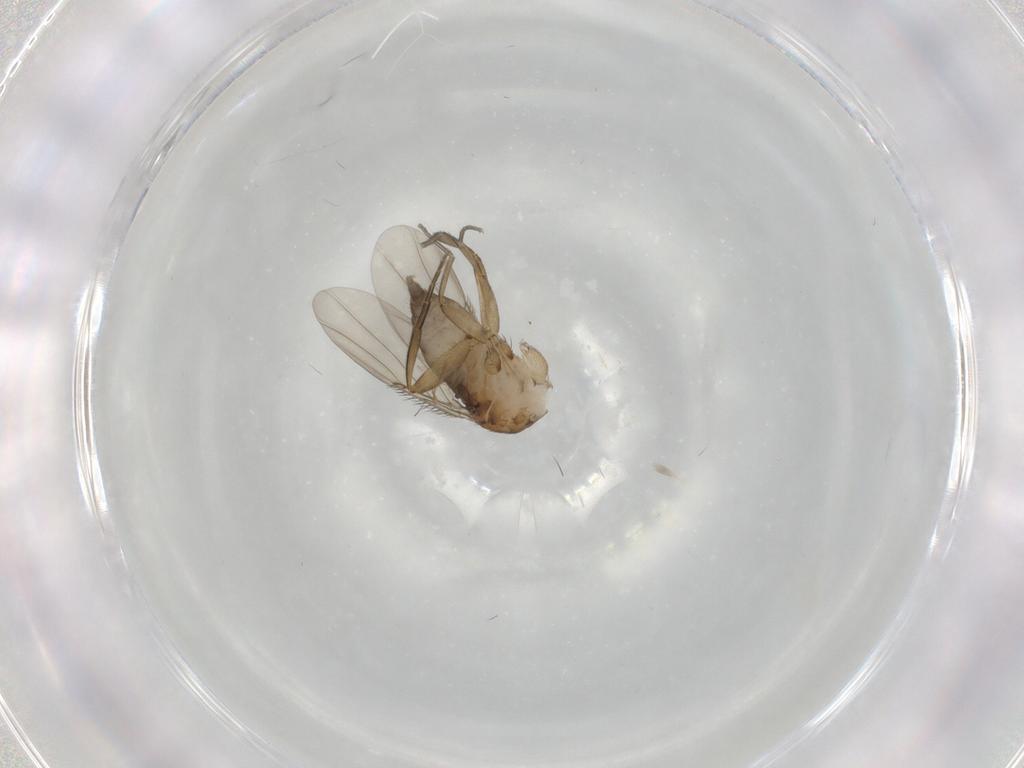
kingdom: Animalia
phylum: Arthropoda
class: Insecta
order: Diptera
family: Phoridae
